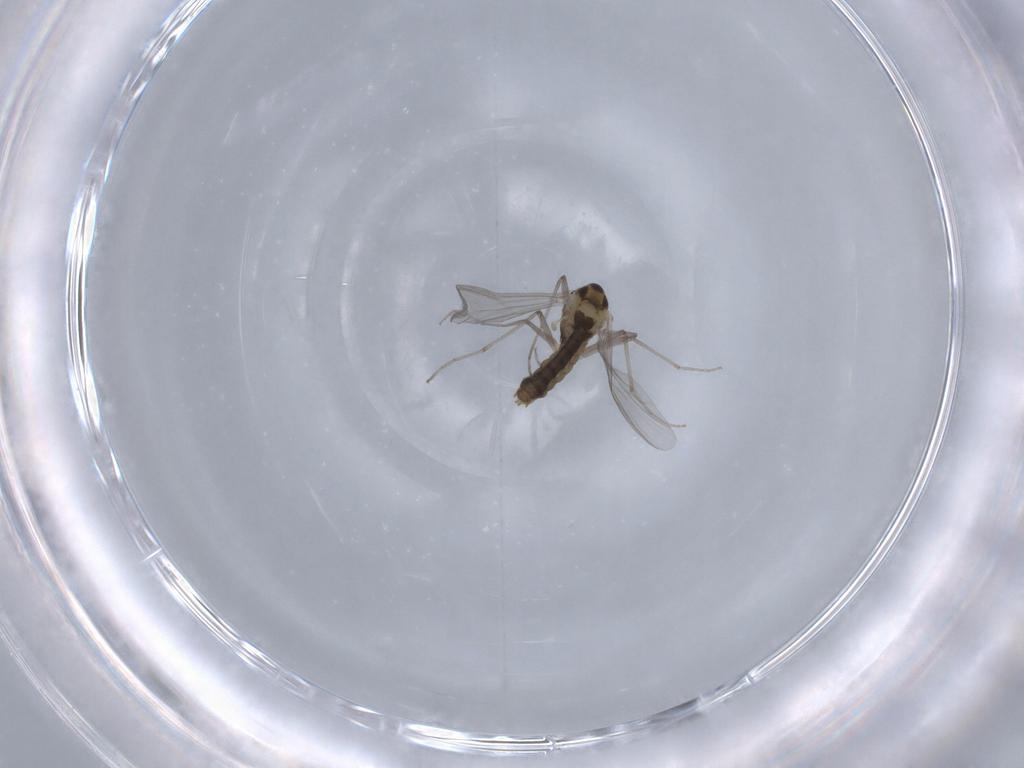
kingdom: Animalia
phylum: Arthropoda
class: Insecta
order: Diptera
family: Chironomidae
